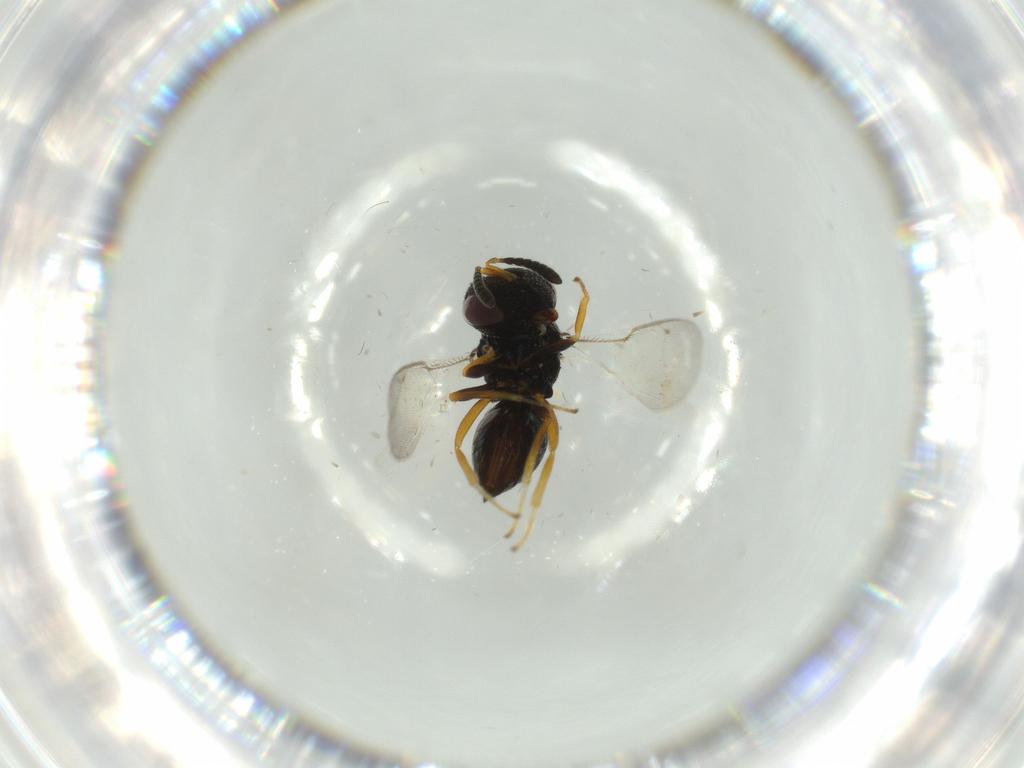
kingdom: Animalia
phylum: Arthropoda
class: Insecta
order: Hymenoptera
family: Pteromalidae
